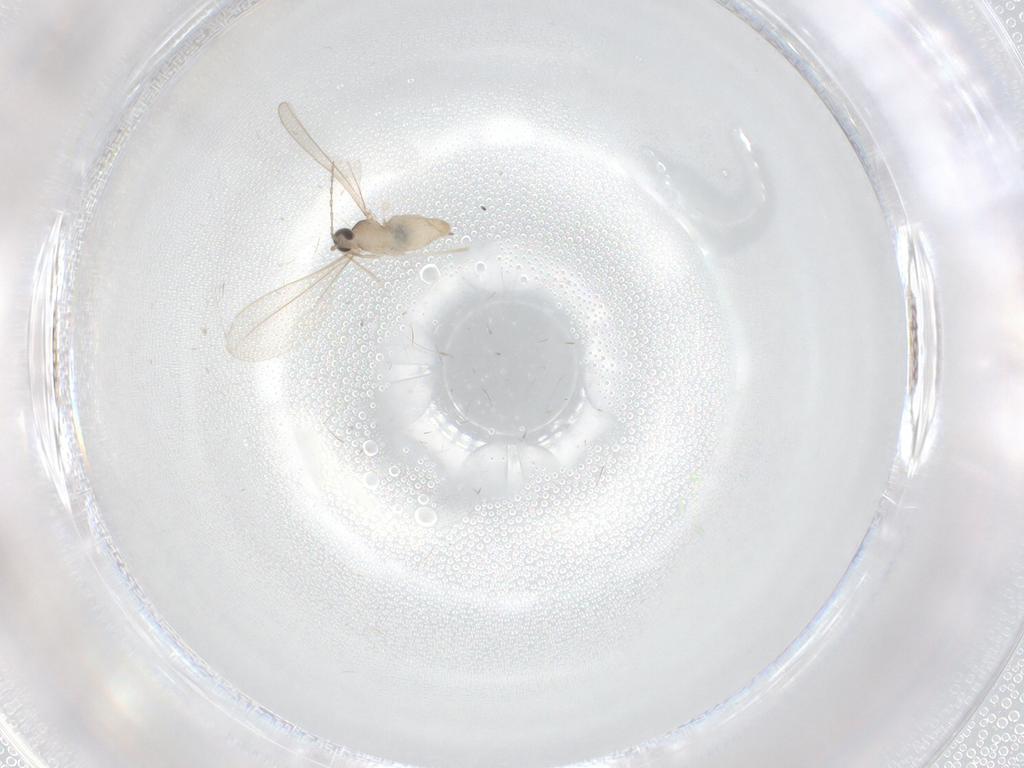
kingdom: Animalia
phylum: Arthropoda
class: Insecta
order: Diptera
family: Cecidomyiidae
